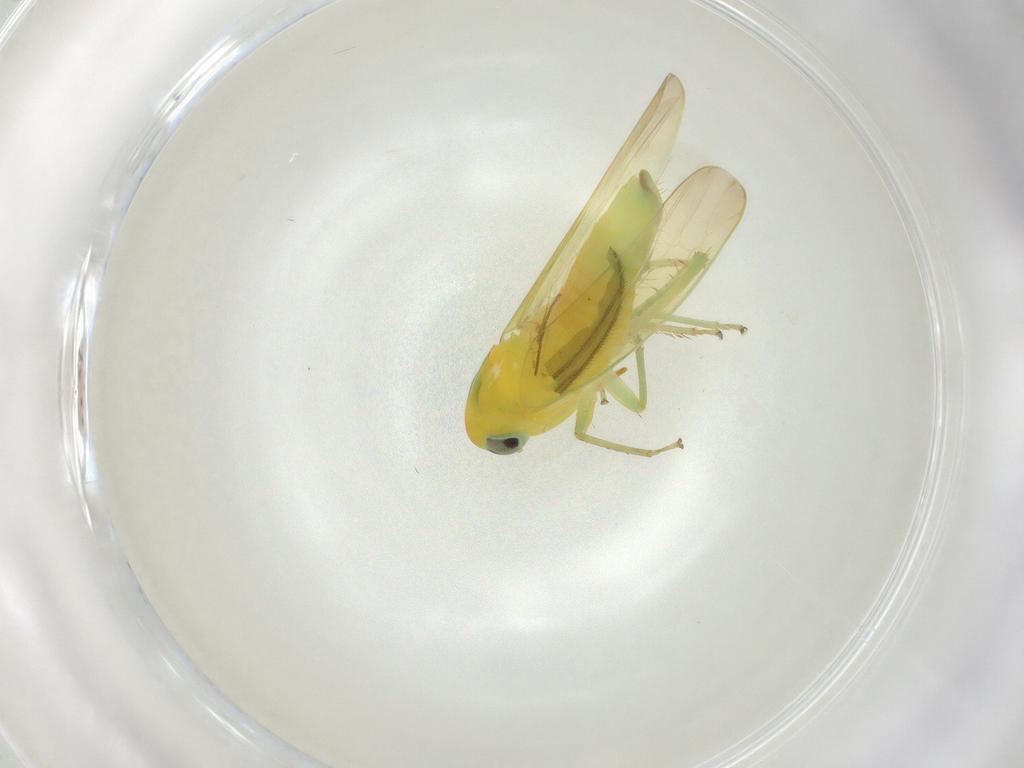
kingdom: Animalia
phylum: Arthropoda
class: Insecta
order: Hemiptera
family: Cicadellidae
